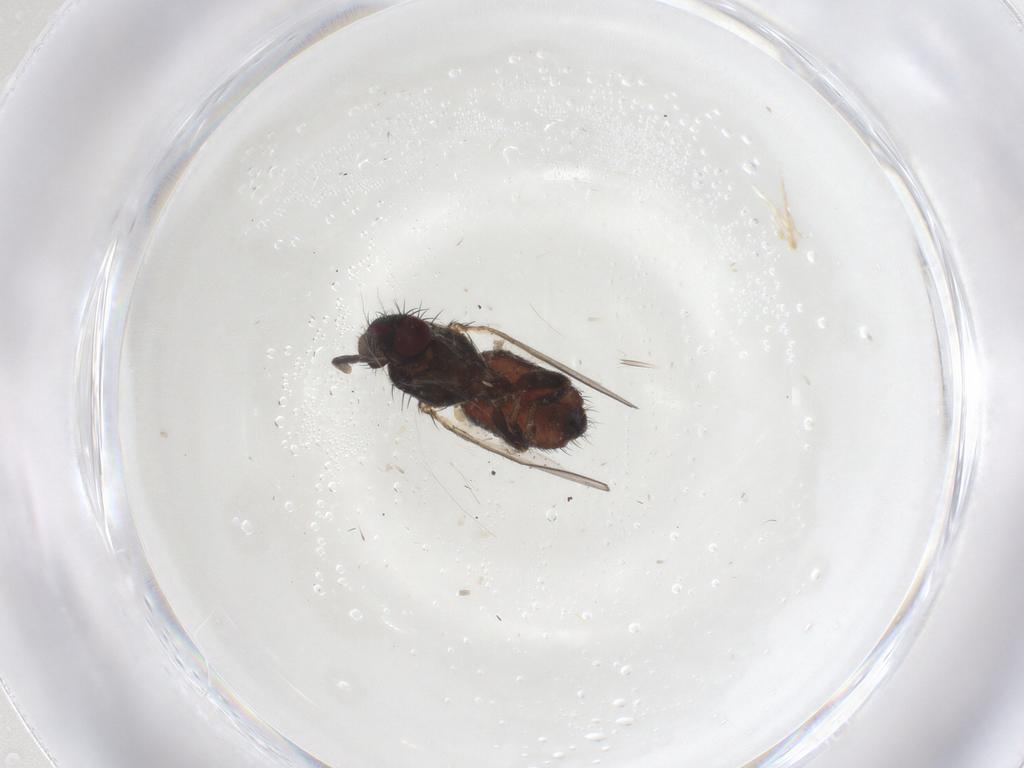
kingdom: Animalia
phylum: Arthropoda
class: Insecta
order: Diptera
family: Milichiidae
